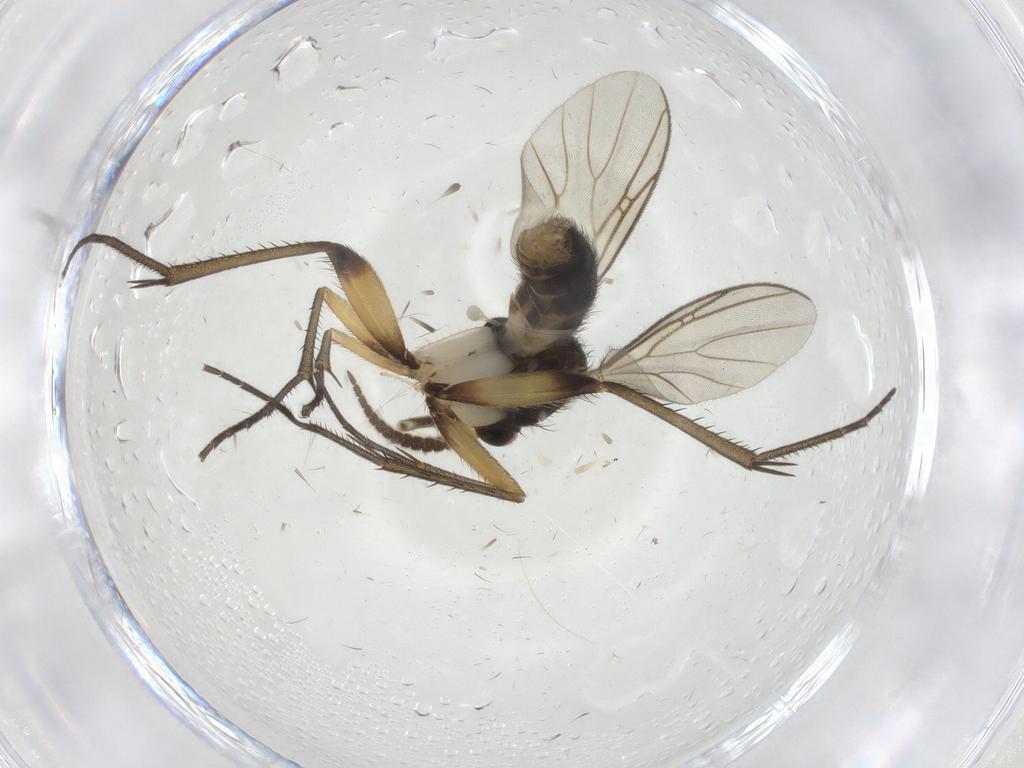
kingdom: Animalia
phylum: Arthropoda
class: Insecta
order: Diptera
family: Mycetophilidae
